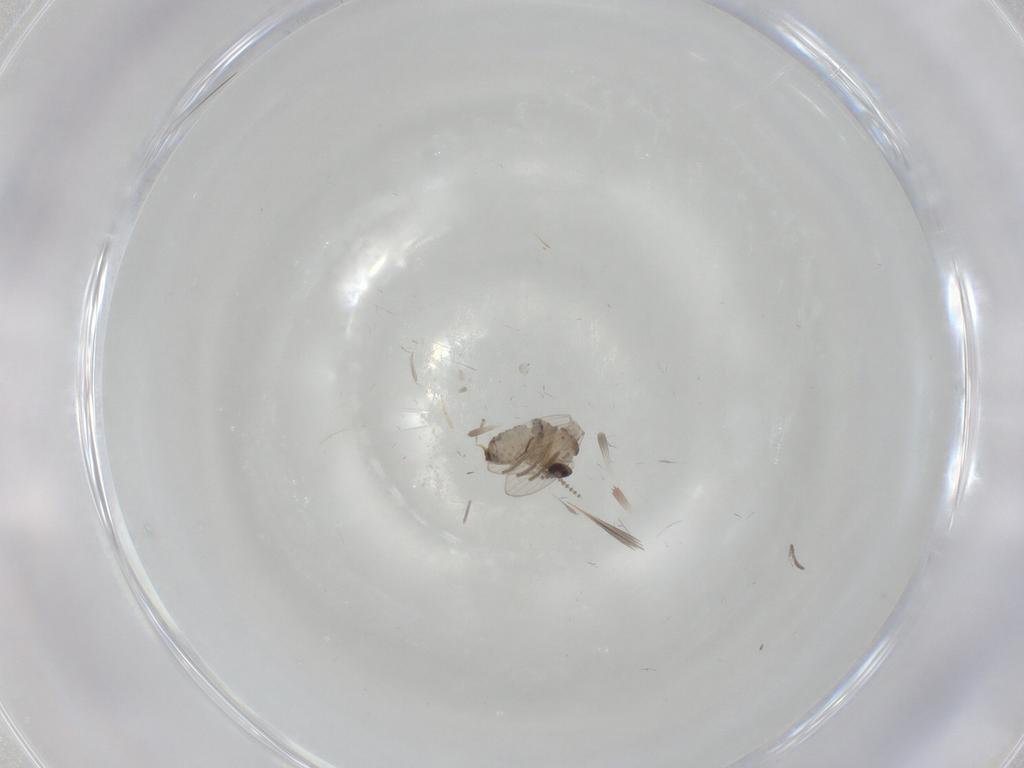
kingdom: Animalia
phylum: Arthropoda
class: Insecta
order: Diptera
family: Psychodidae
